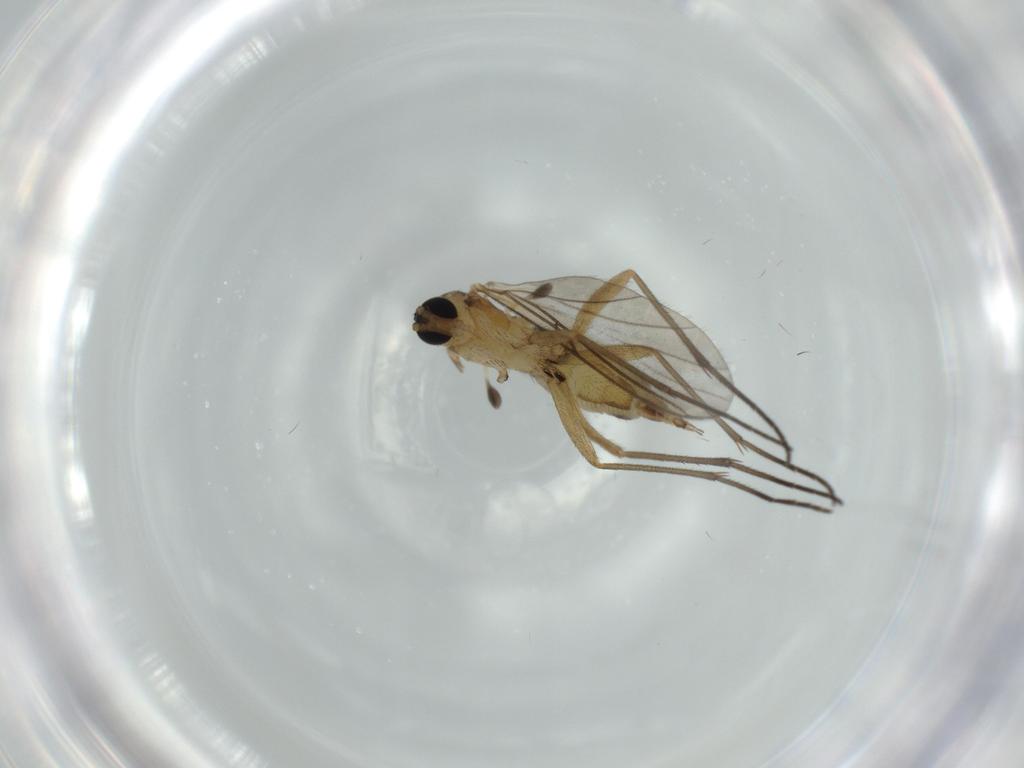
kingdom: Animalia
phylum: Arthropoda
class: Insecta
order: Diptera
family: Sciaridae
